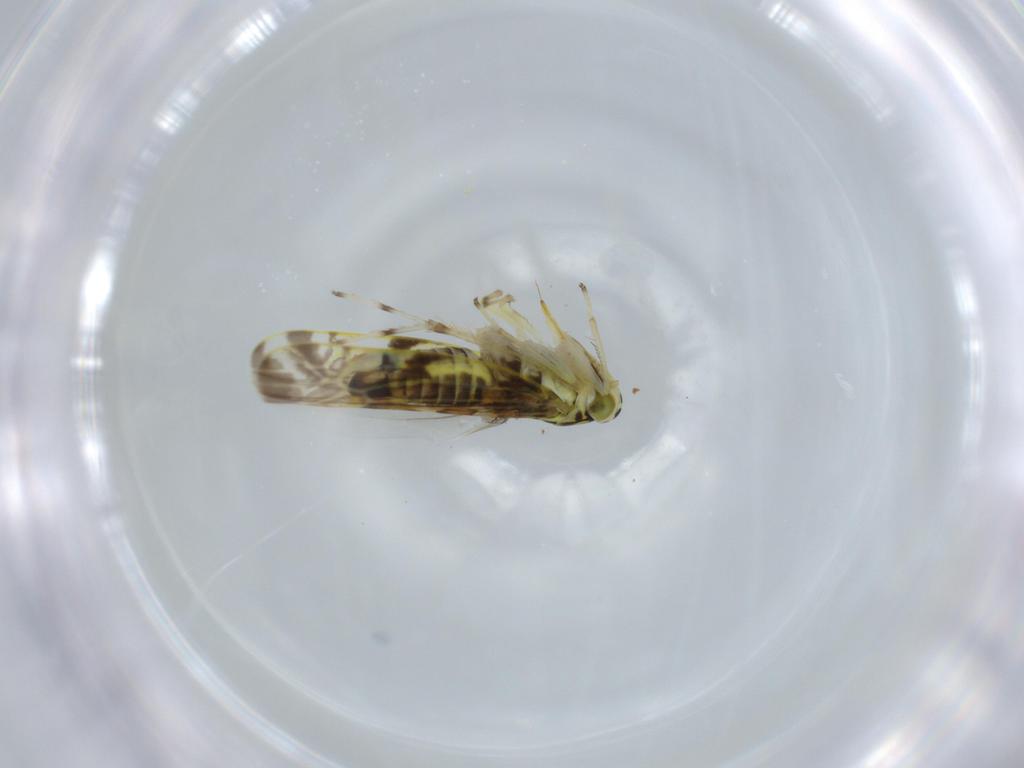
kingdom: Animalia
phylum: Arthropoda
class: Insecta
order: Hemiptera
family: Cicadellidae
